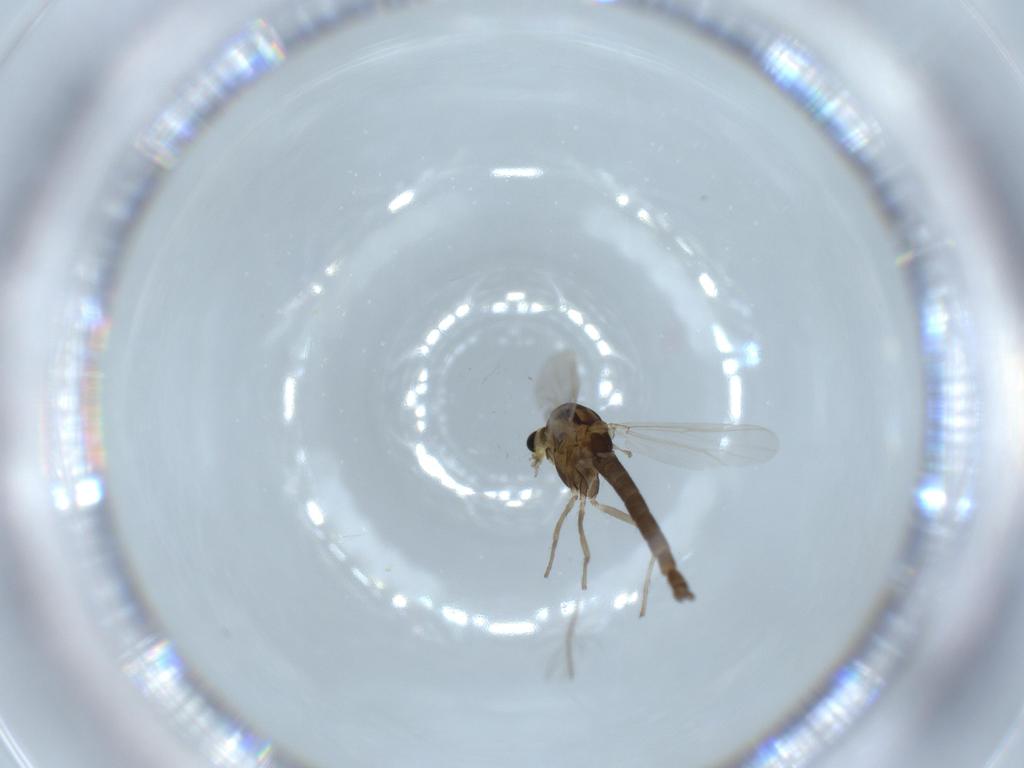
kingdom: Animalia
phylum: Arthropoda
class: Insecta
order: Diptera
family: Chironomidae
